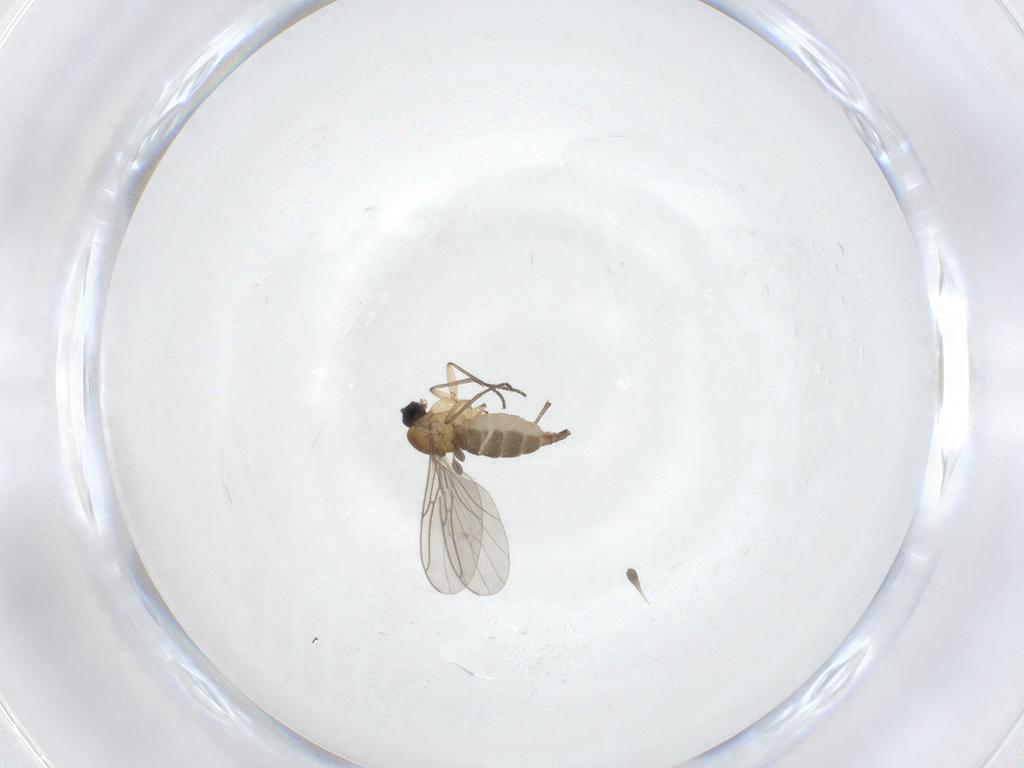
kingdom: Animalia
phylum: Arthropoda
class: Insecta
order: Diptera
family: Sciaridae
